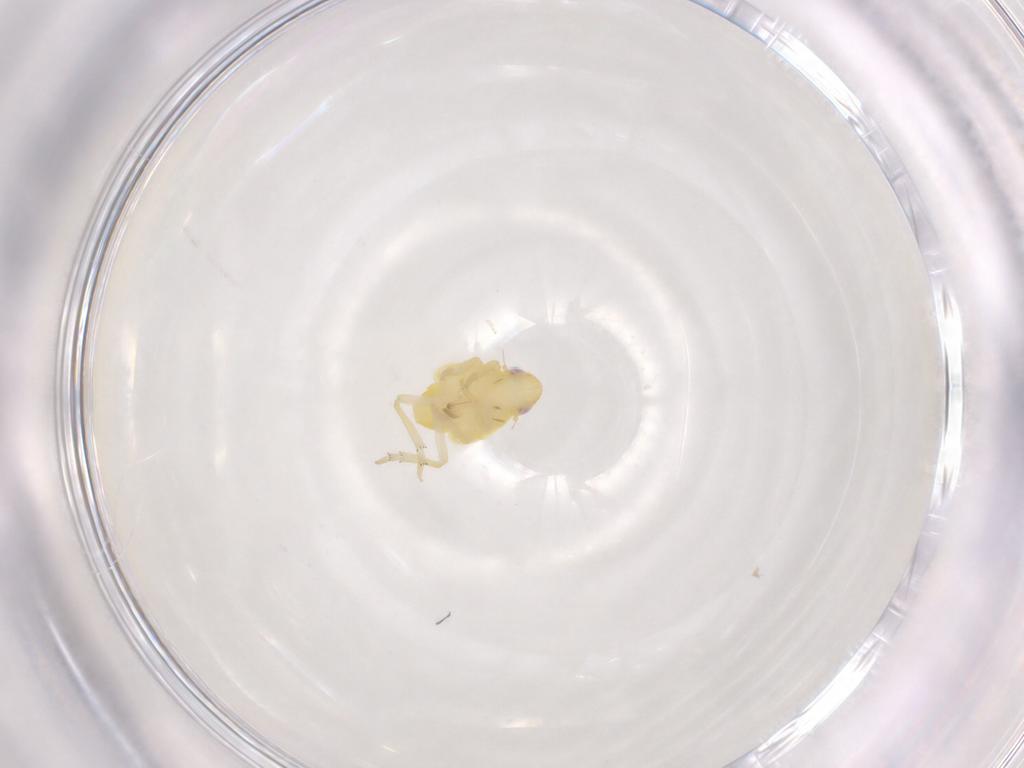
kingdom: Animalia
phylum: Arthropoda
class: Insecta
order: Hemiptera
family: Tropiduchidae
